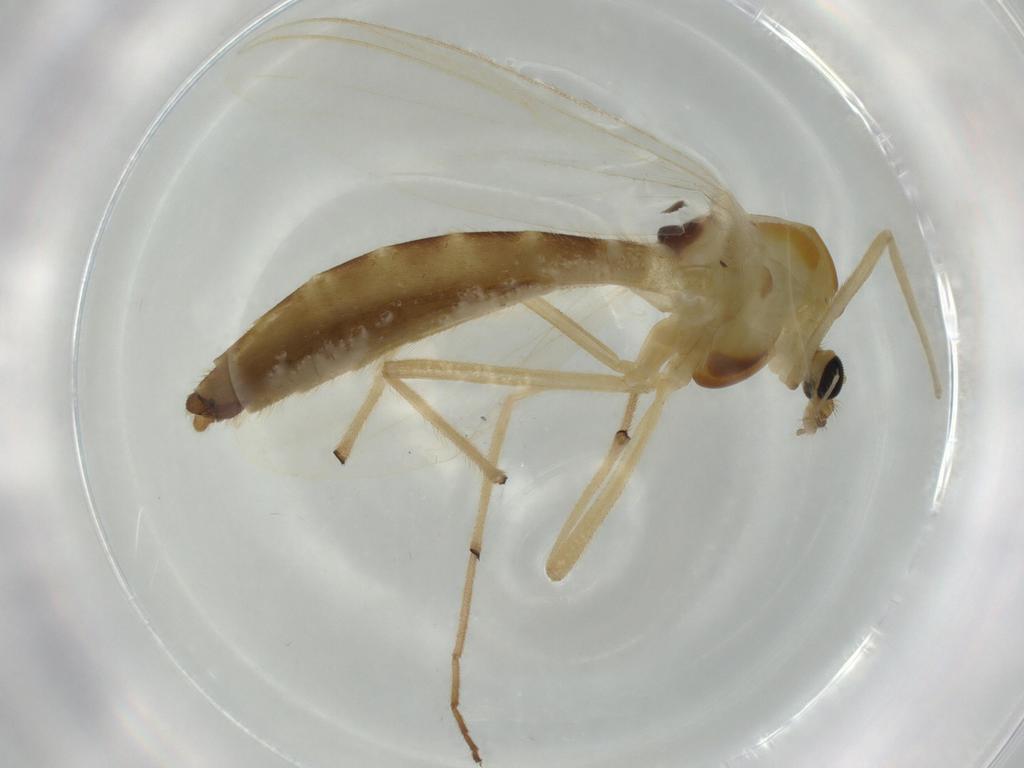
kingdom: Animalia
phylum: Arthropoda
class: Insecta
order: Diptera
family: Chironomidae
